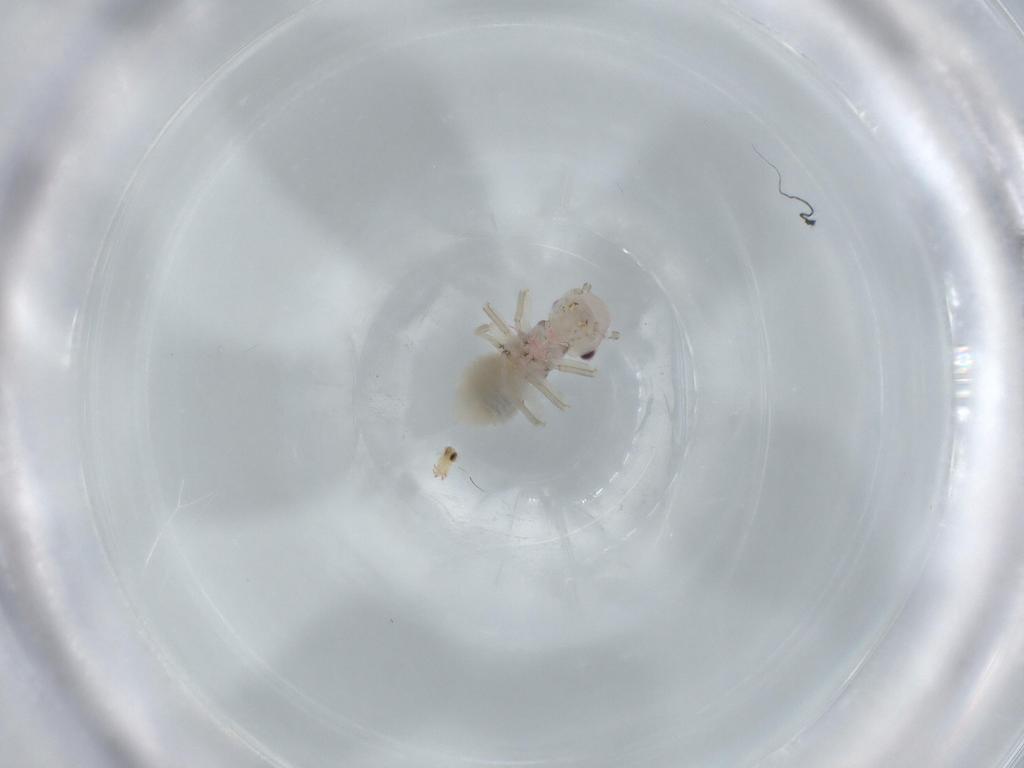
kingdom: Animalia
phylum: Arthropoda
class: Insecta
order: Psocodea
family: Amphipsocidae
